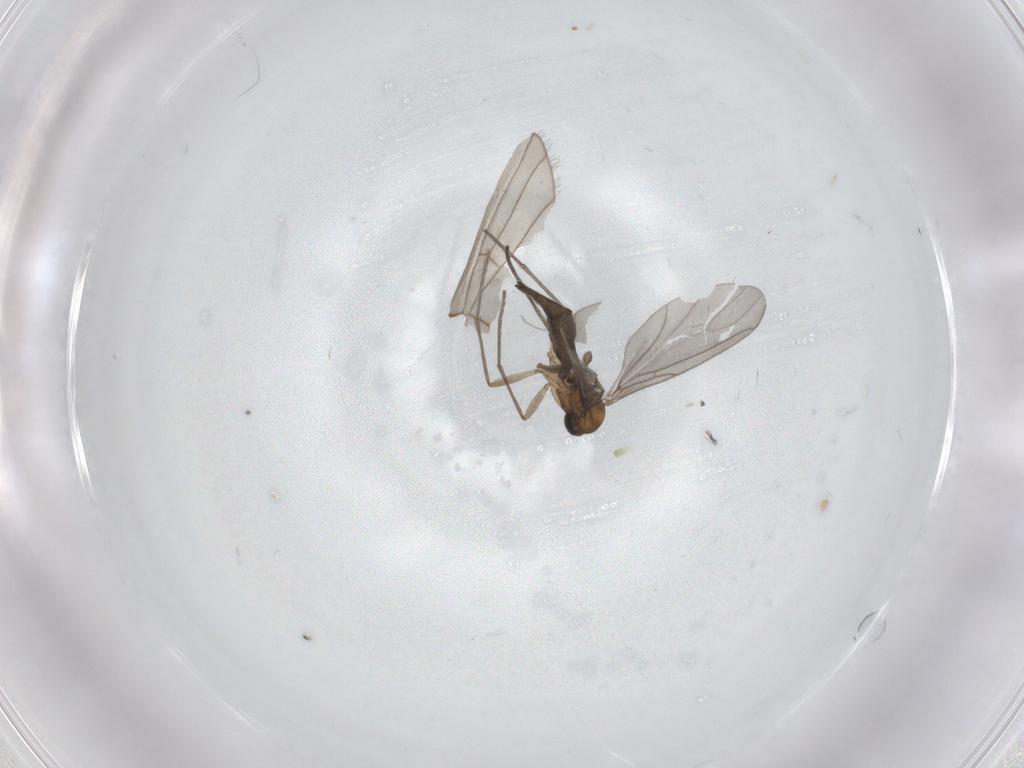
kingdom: Animalia
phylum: Arthropoda
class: Insecta
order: Diptera
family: Sciaridae
